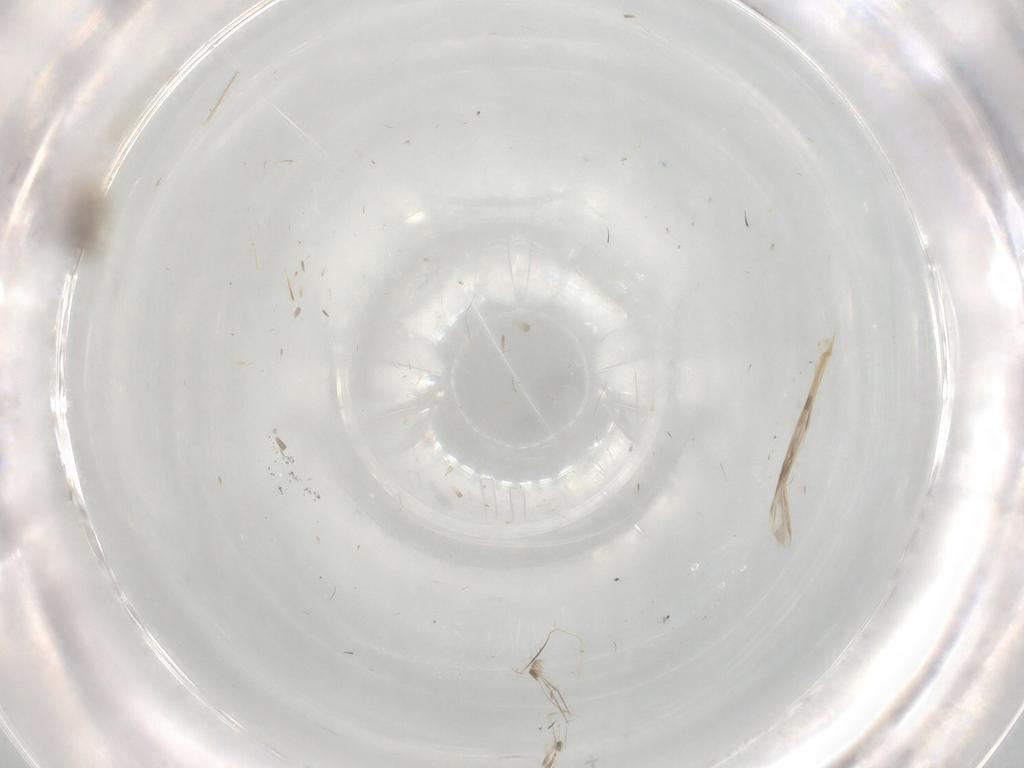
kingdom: Animalia
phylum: Arthropoda
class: Insecta
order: Diptera
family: Cecidomyiidae
